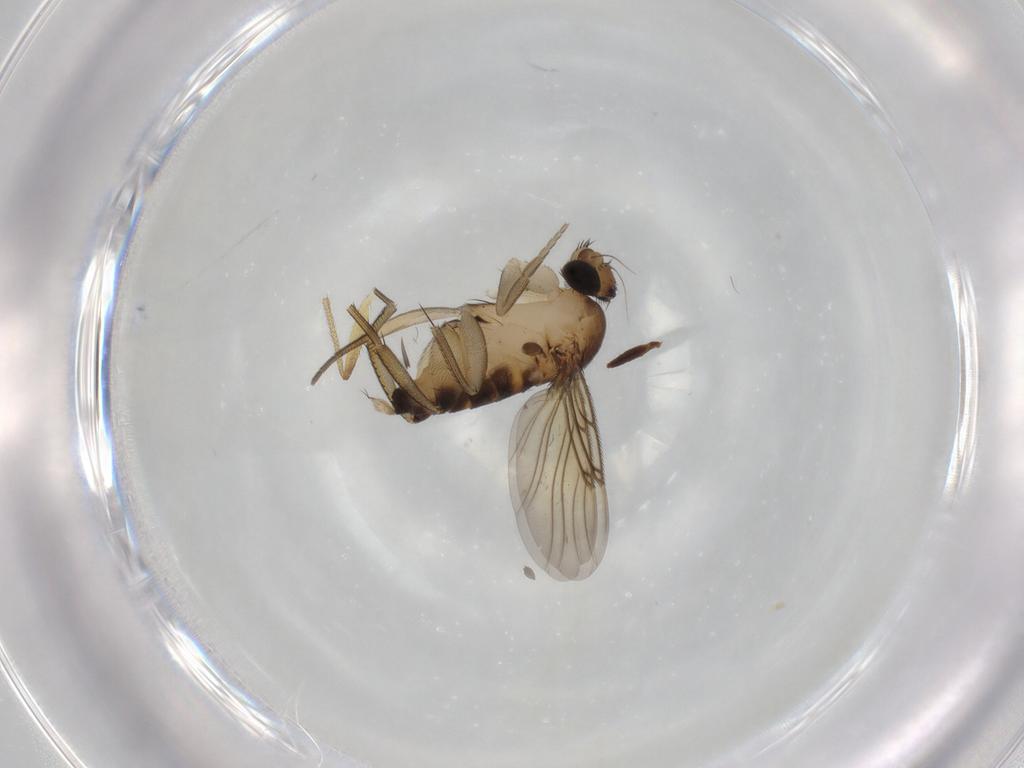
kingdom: Animalia
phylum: Arthropoda
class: Insecta
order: Diptera
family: Phoridae
